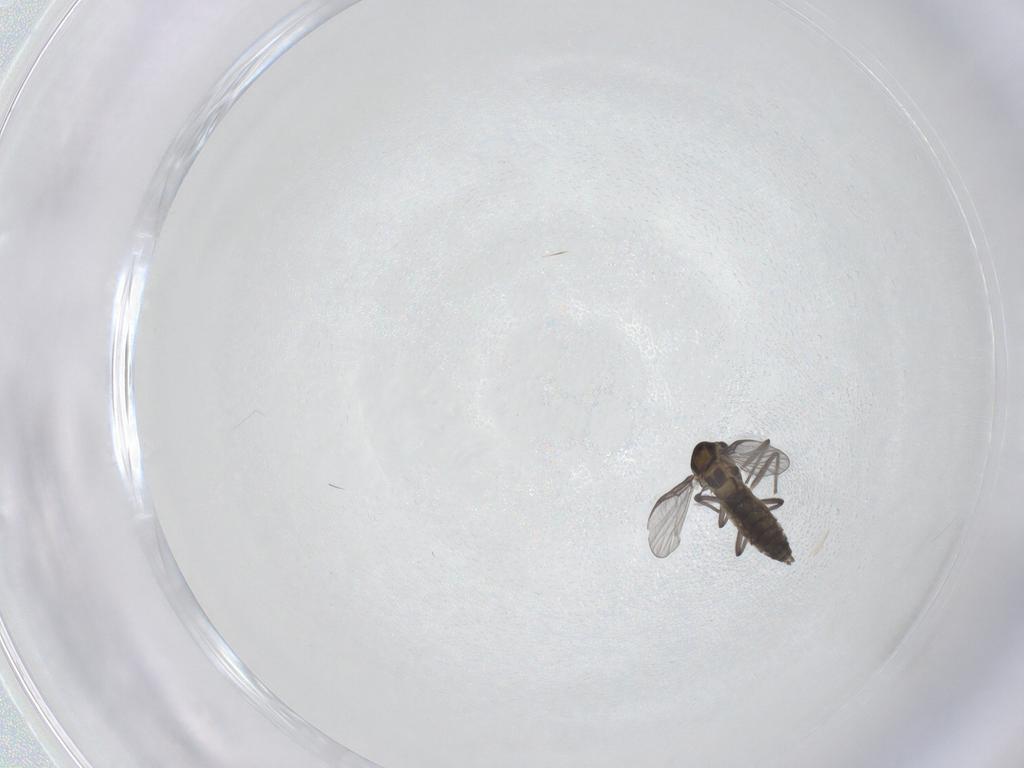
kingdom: Animalia
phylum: Arthropoda
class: Insecta
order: Diptera
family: Chironomidae
